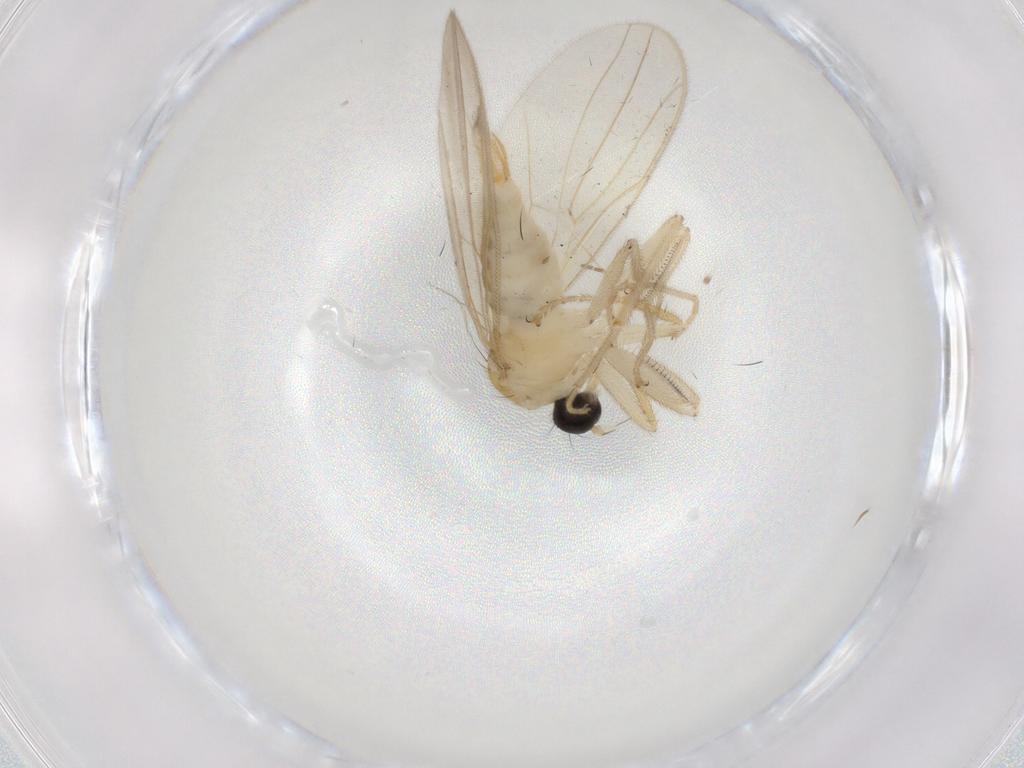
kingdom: Animalia
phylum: Arthropoda
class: Insecta
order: Diptera
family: Hybotidae
